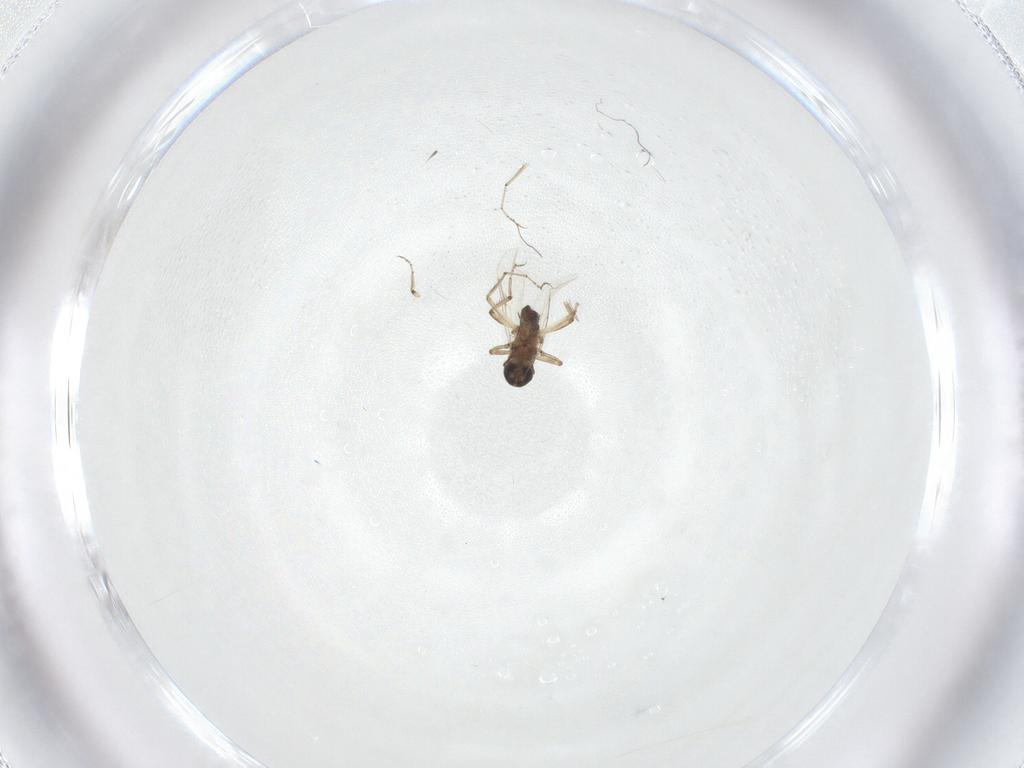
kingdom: Animalia
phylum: Arthropoda
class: Insecta
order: Diptera
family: Ceratopogonidae
